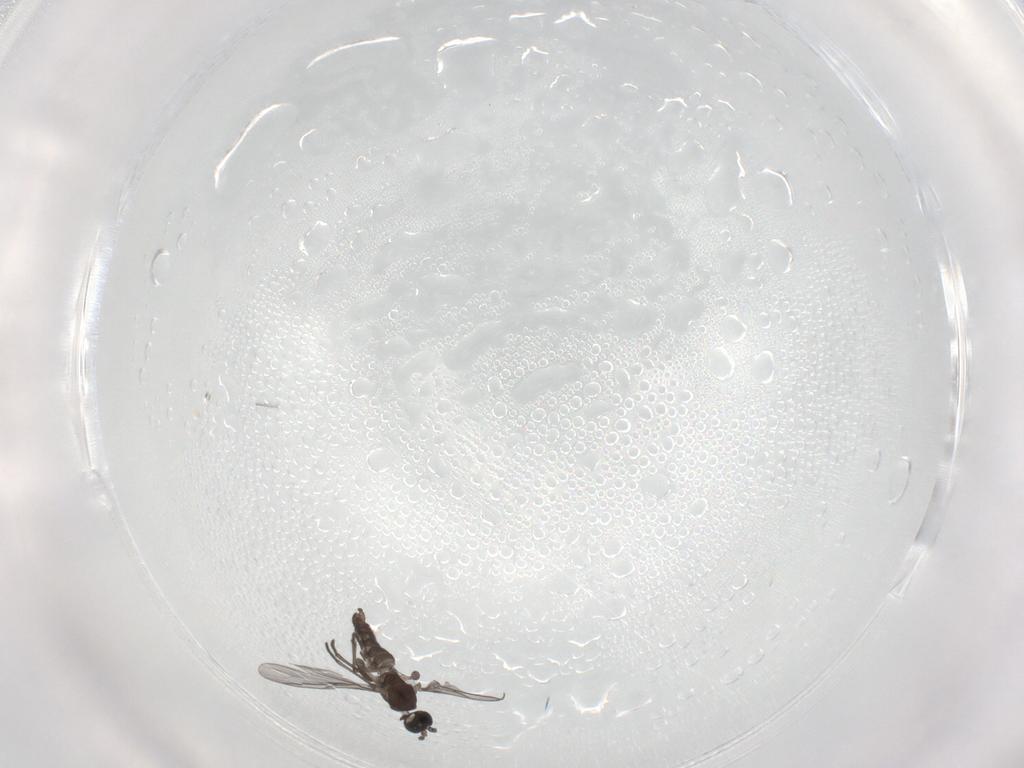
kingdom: Animalia
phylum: Arthropoda
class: Insecta
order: Diptera
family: Chironomidae
